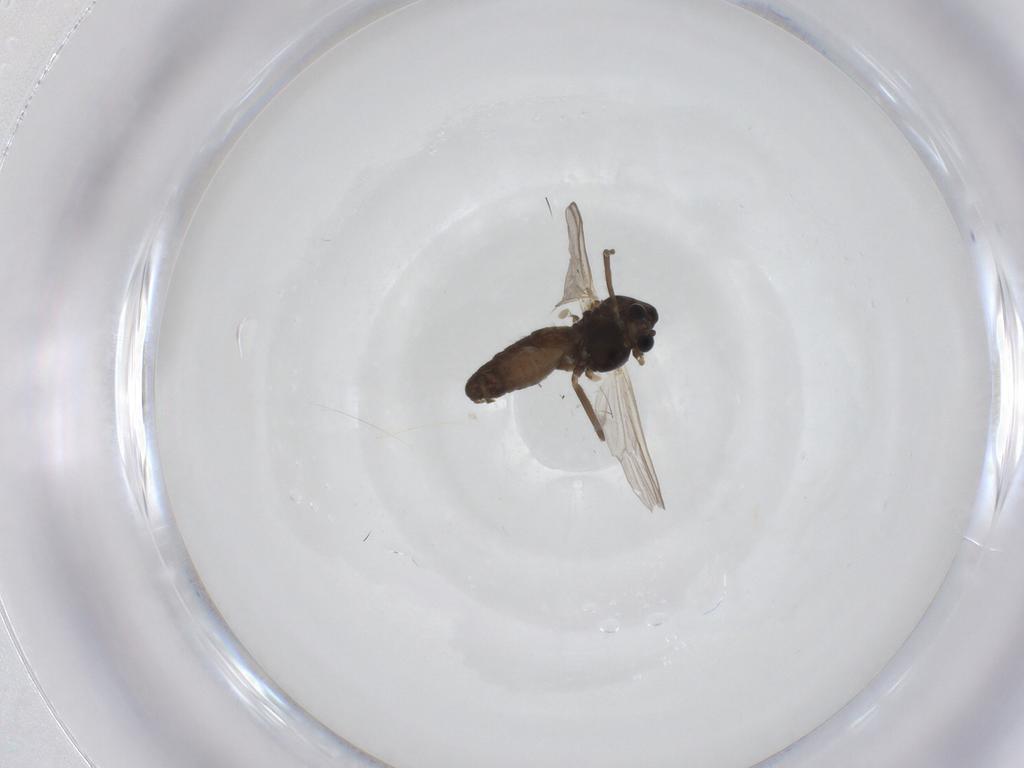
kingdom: Animalia
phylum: Arthropoda
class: Insecta
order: Diptera
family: Chironomidae
